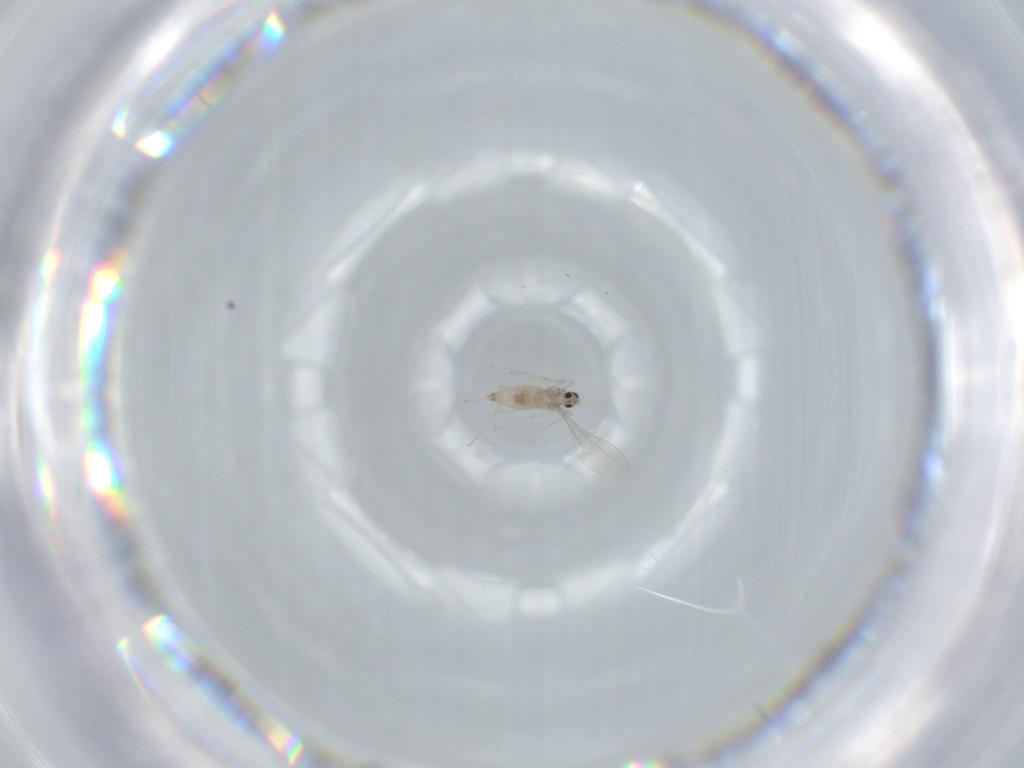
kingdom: Animalia
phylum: Arthropoda
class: Insecta
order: Diptera
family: Cecidomyiidae
